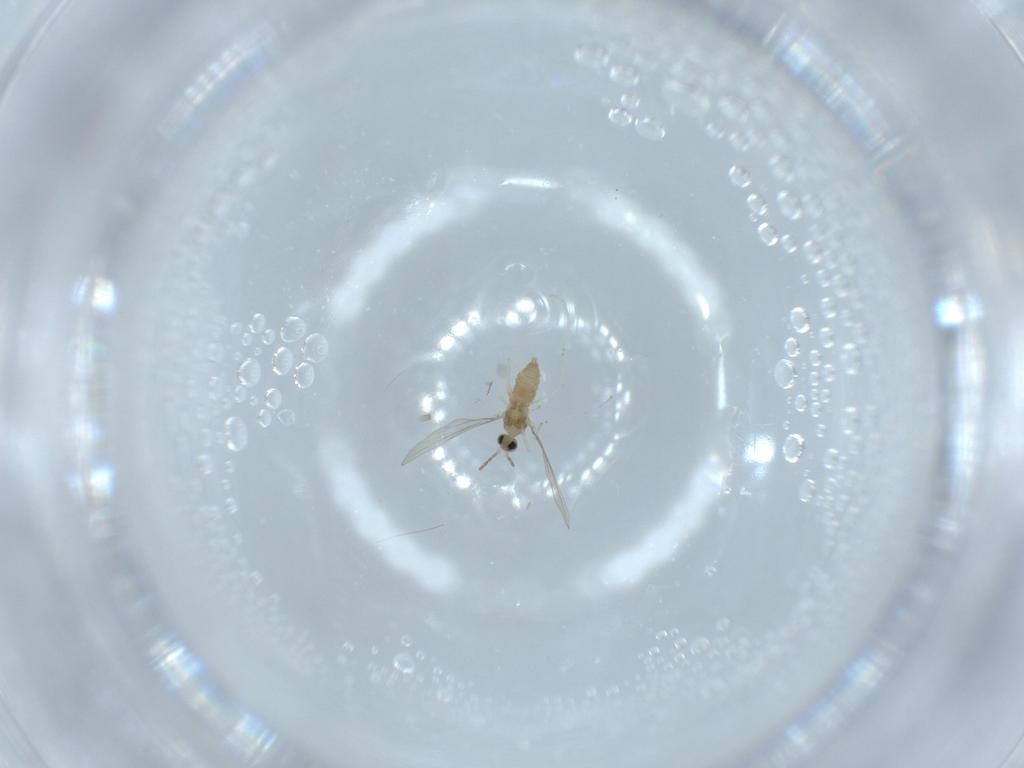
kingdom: Animalia
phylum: Arthropoda
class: Insecta
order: Diptera
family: Cecidomyiidae
